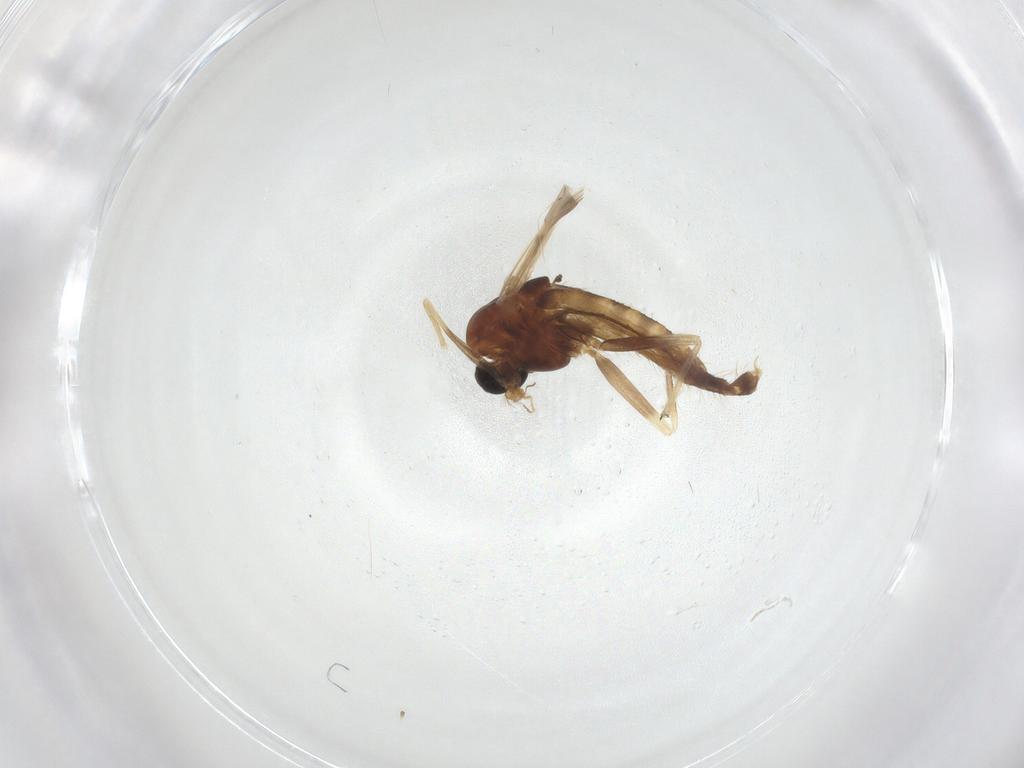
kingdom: Animalia
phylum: Arthropoda
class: Insecta
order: Diptera
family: Chironomidae
